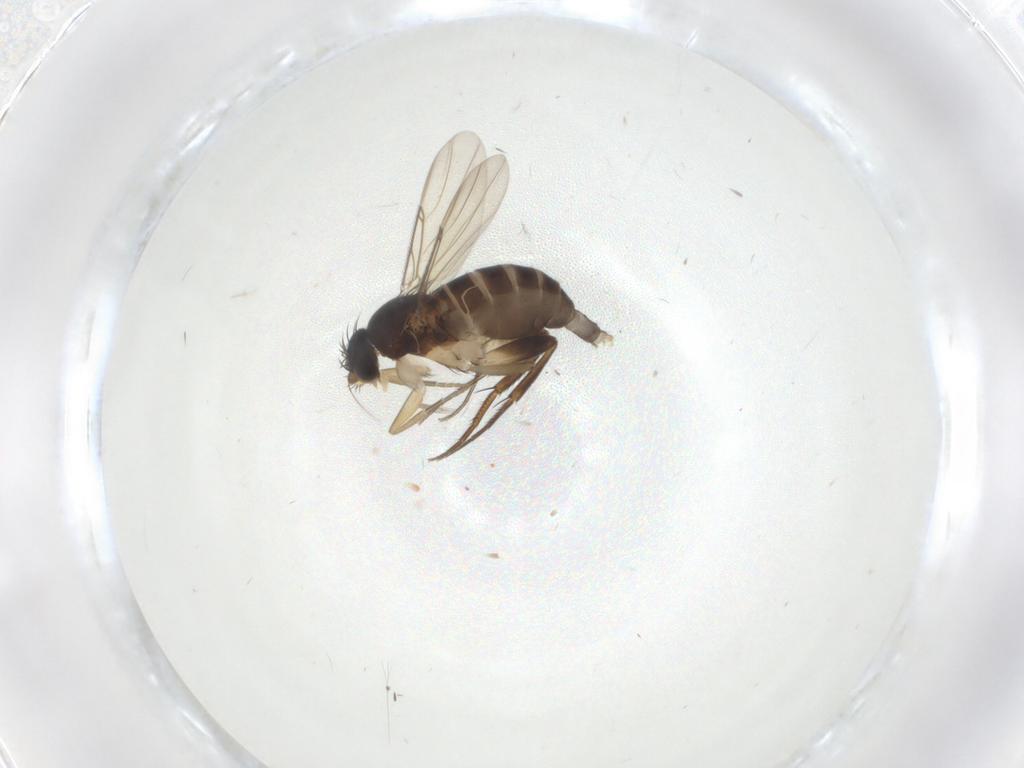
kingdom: Animalia
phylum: Arthropoda
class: Insecta
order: Diptera
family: Phoridae
